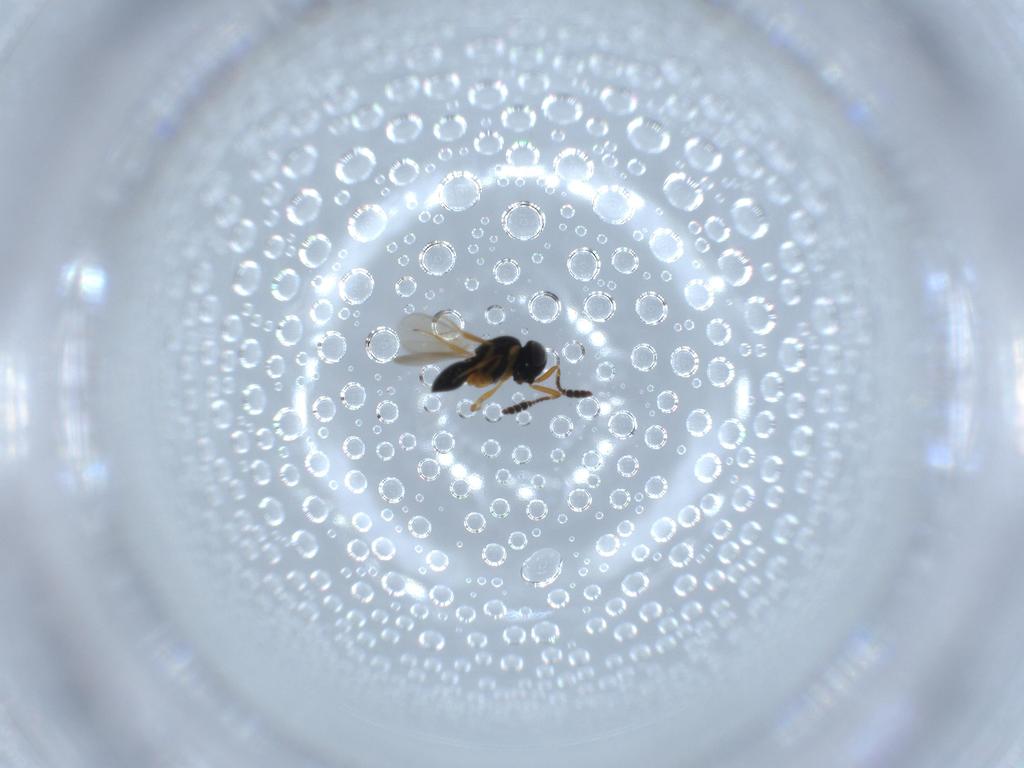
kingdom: Animalia
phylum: Arthropoda
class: Insecta
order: Hymenoptera
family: Scelionidae
